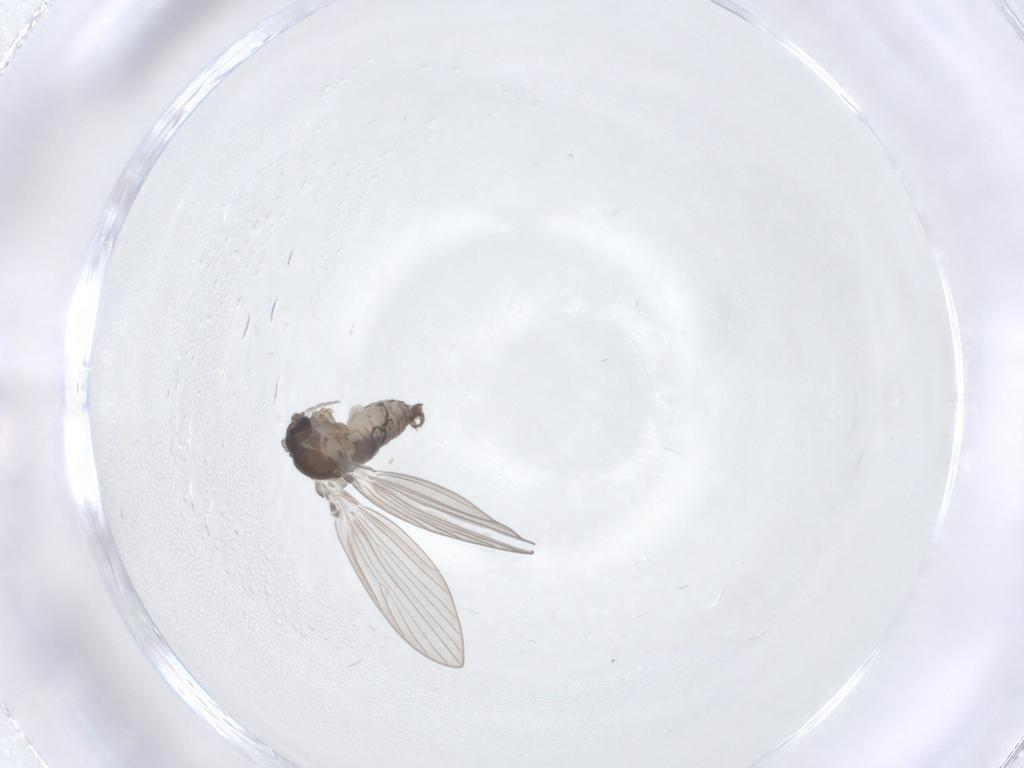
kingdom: Animalia
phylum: Arthropoda
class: Insecta
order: Diptera
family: Psychodidae
